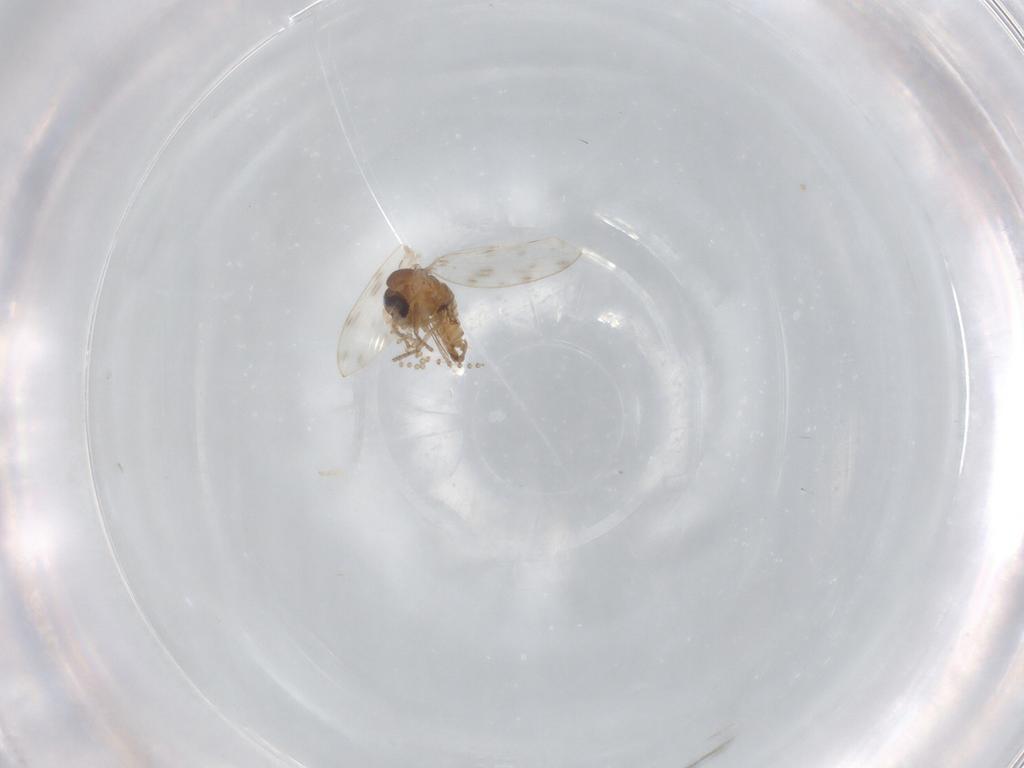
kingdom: Animalia
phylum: Arthropoda
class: Insecta
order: Diptera
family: Psychodidae
